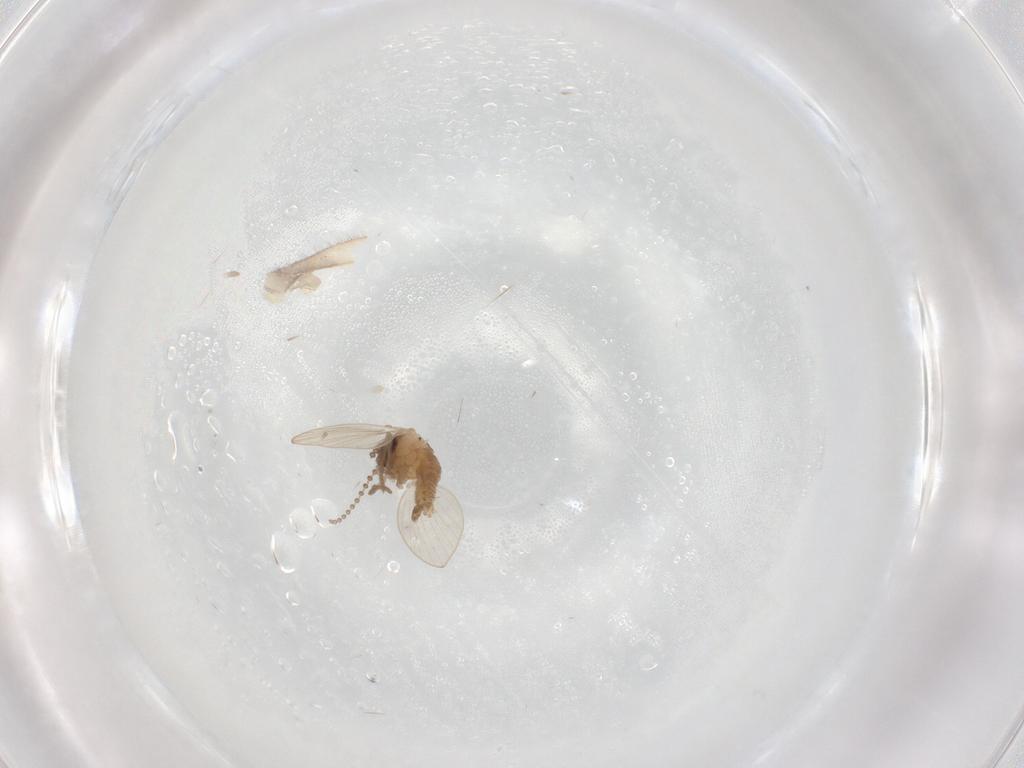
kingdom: Animalia
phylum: Arthropoda
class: Insecta
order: Diptera
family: Psychodidae
